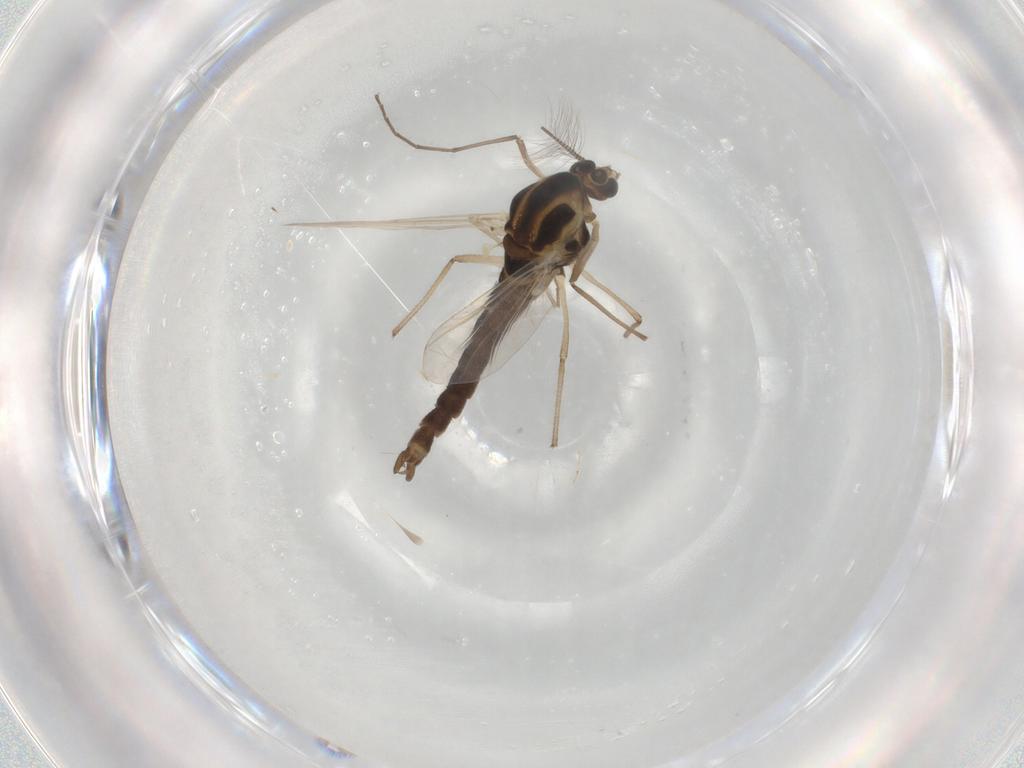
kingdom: Animalia
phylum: Arthropoda
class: Insecta
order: Diptera
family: Chironomidae
